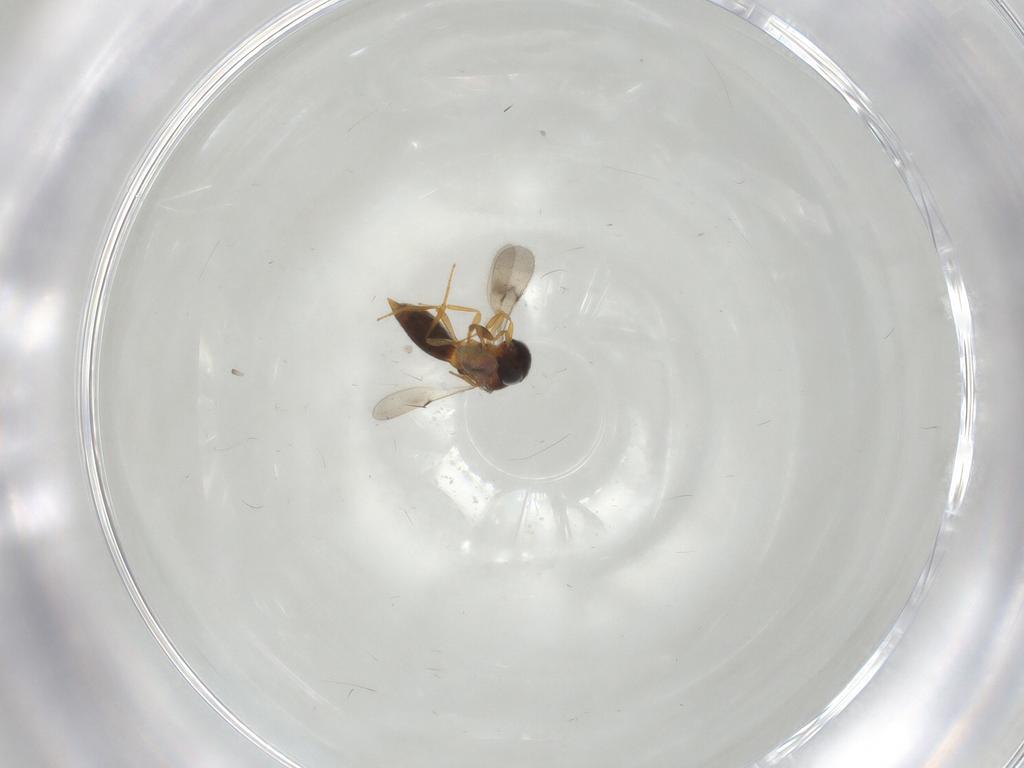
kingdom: Animalia
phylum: Arthropoda
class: Insecta
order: Hymenoptera
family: Scelionidae
